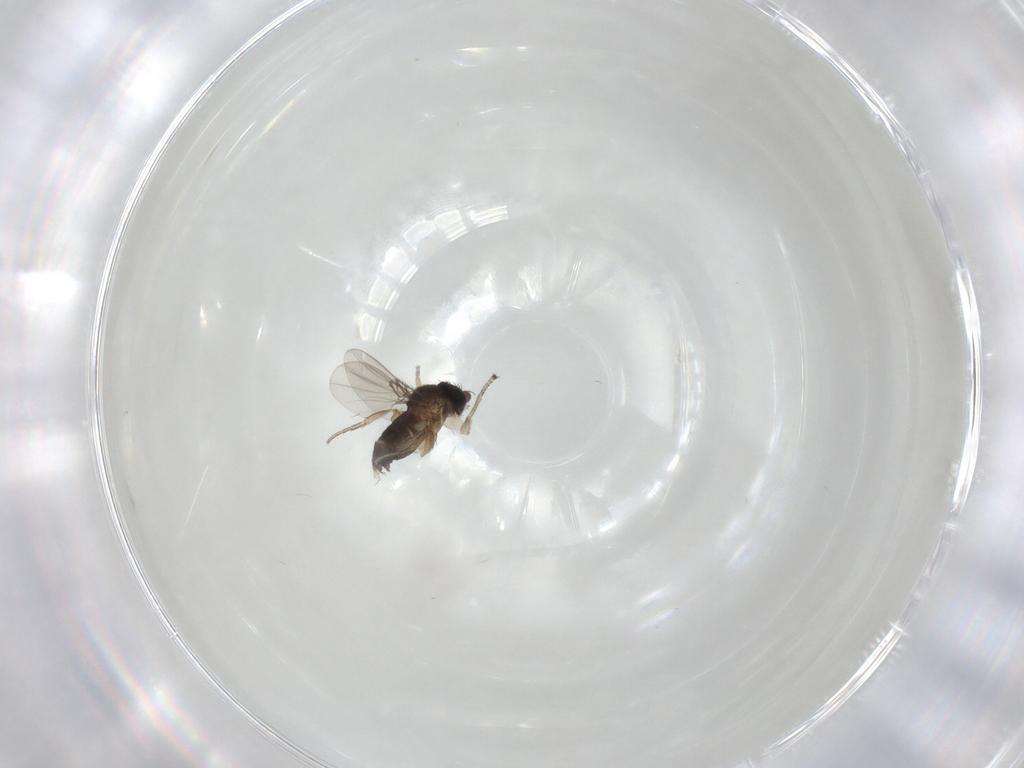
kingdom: Animalia
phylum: Arthropoda
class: Insecta
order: Diptera
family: Phoridae
